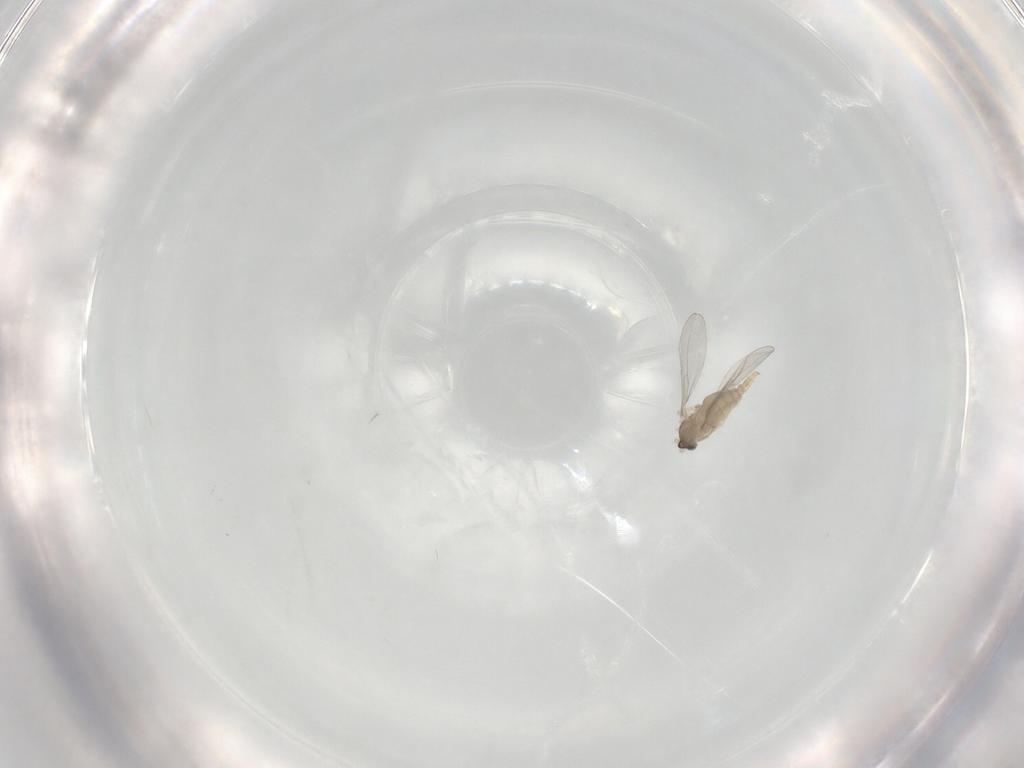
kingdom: Animalia
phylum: Arthropoda
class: Insecta
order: Diptera
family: Cecidomyiidae
